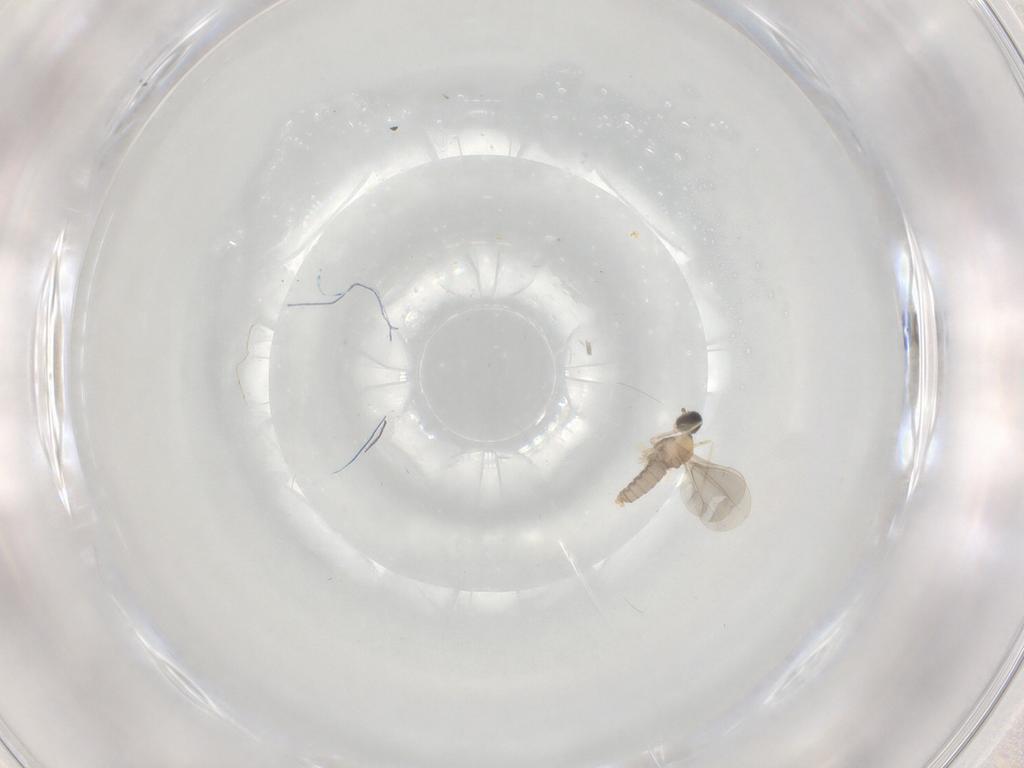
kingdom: Animalia
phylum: Arthropoda
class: Insecta
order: Diptera
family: Cecidomyiidae
